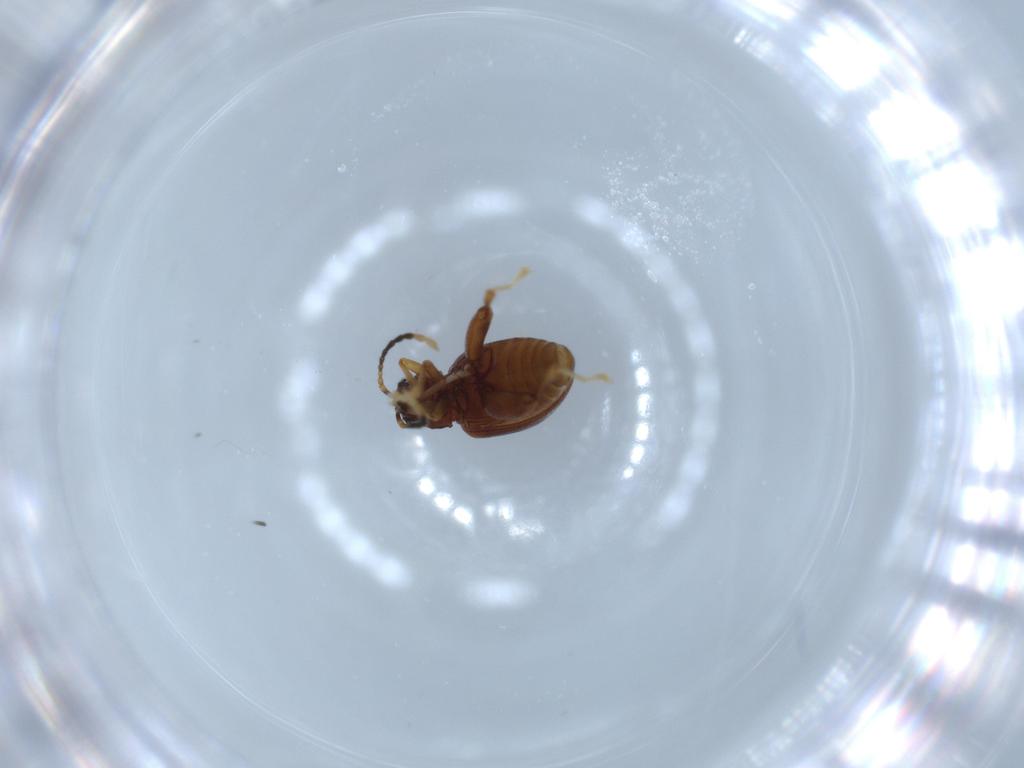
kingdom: Animalia
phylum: Arthropoda
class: Insecta
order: Coleoptera
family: Chrysomelidae
